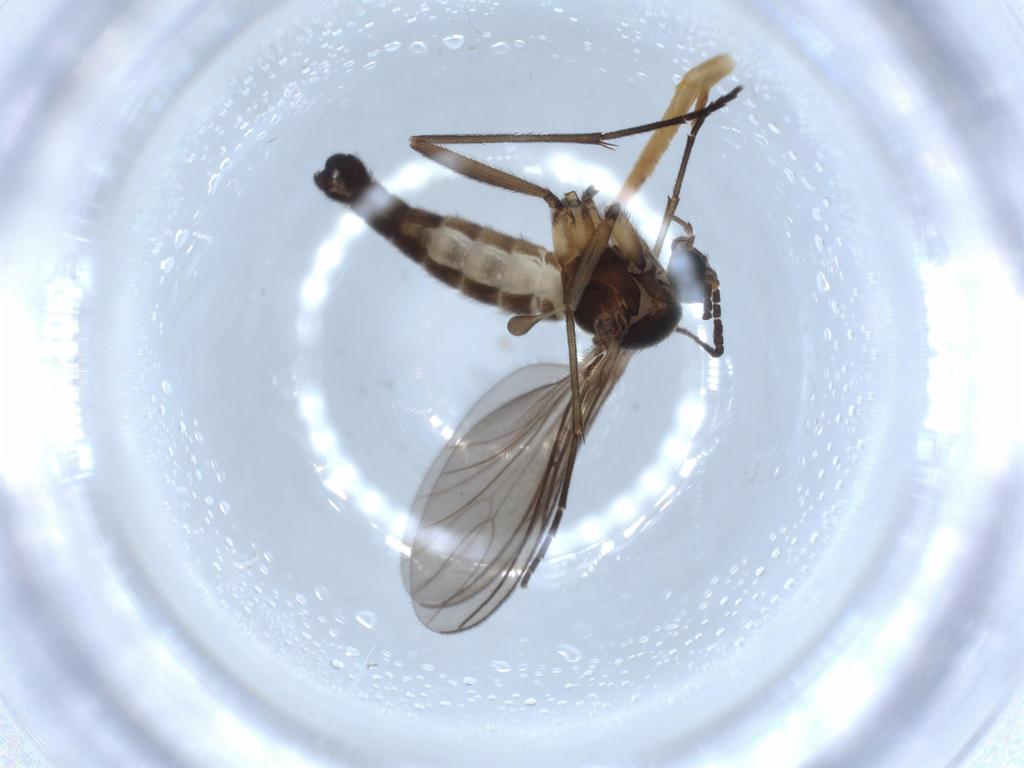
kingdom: Animalia
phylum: Arthropoda
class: Insecta
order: Diptera
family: Sciaridae
